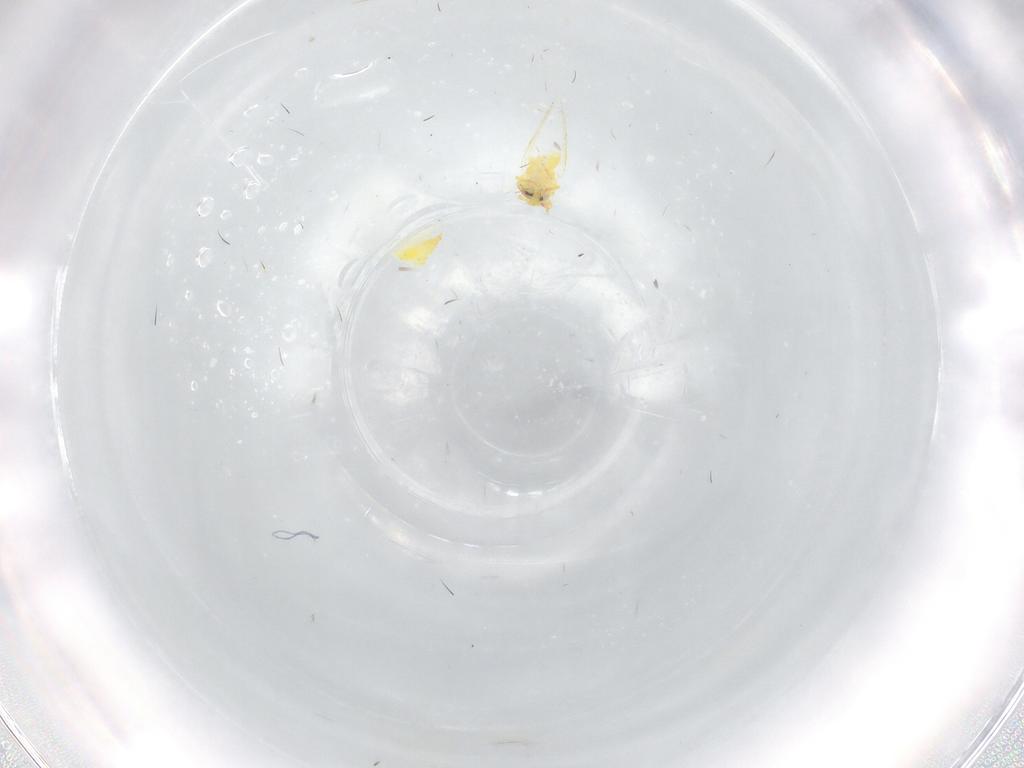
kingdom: Animalia
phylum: Arthropoda
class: Insecta
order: Hemiptera
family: Aleyrodidae
